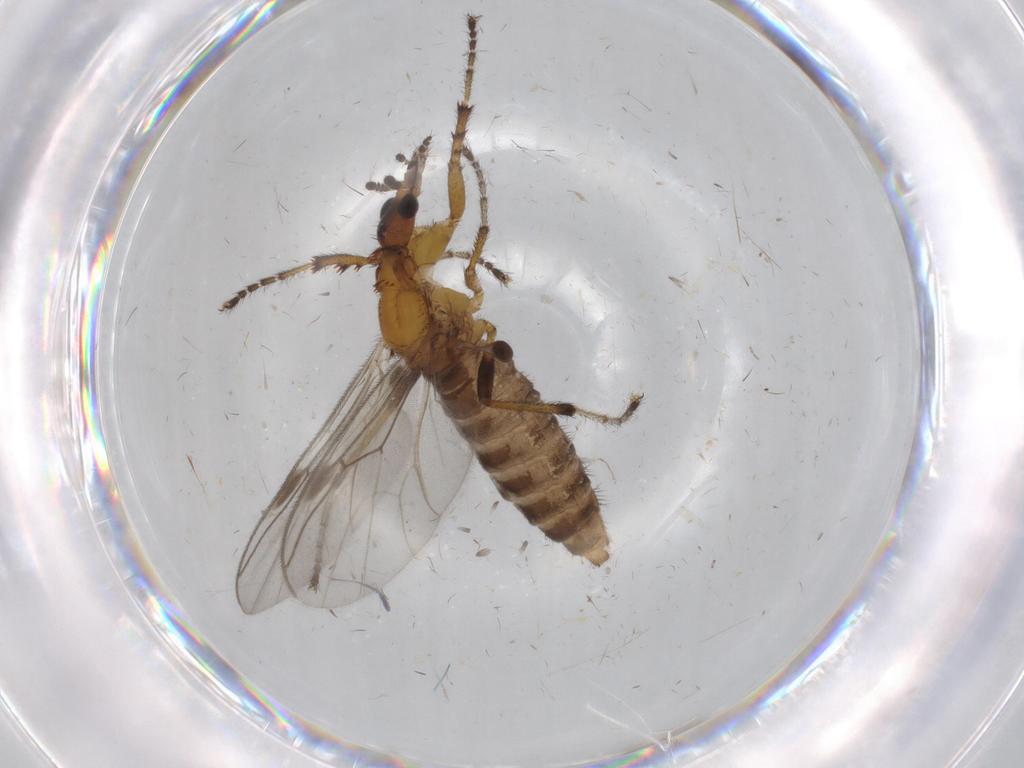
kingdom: Animalia
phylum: Arthropoda
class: Insecta
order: Diptera
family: Bibionidae
